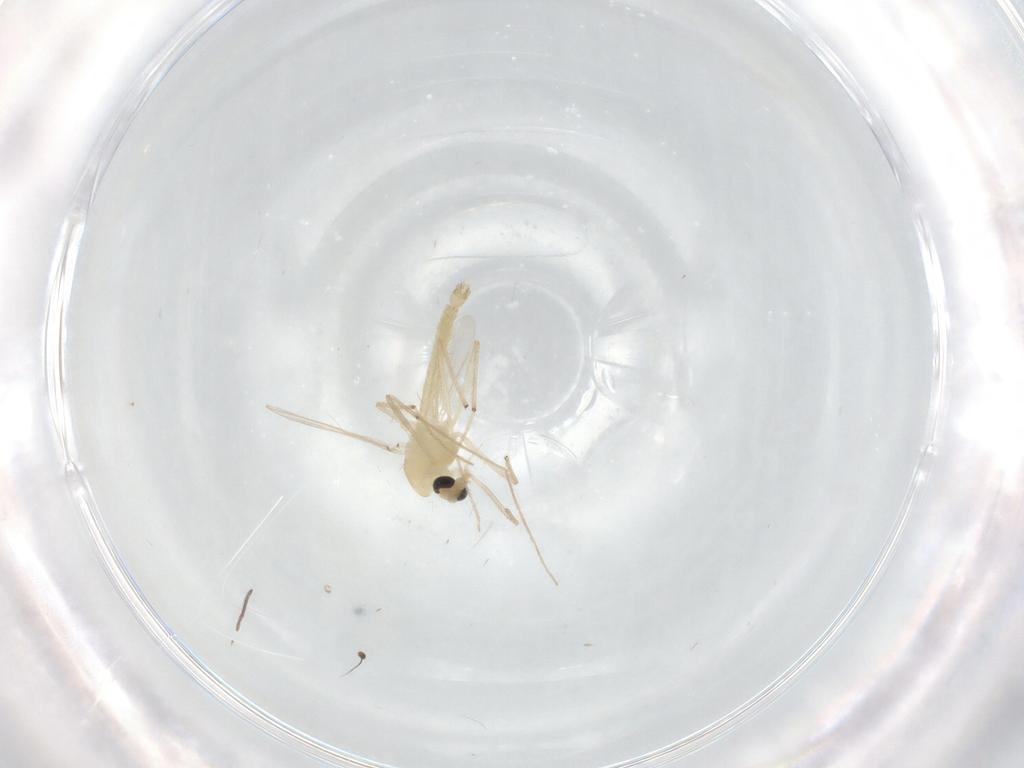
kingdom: Animalia
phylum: Arthropoda
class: Insecta
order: Diptera
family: Chironomidae
